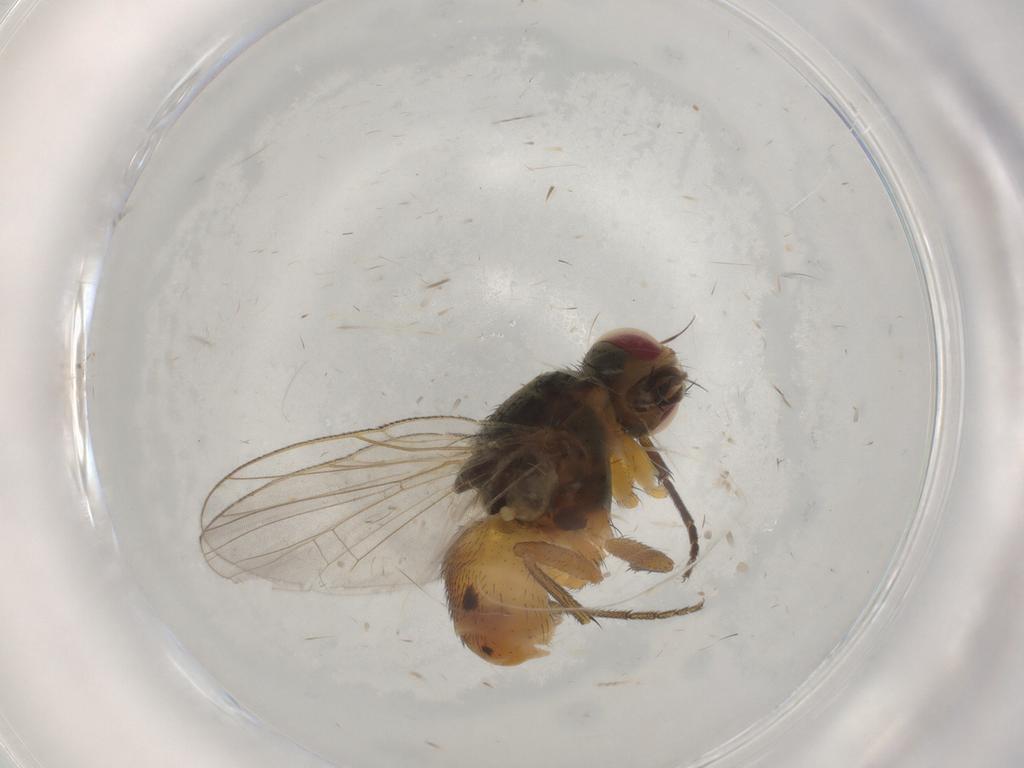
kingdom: Animalia
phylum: Arthropoda
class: Insecta
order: Diptera
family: Muscidae
